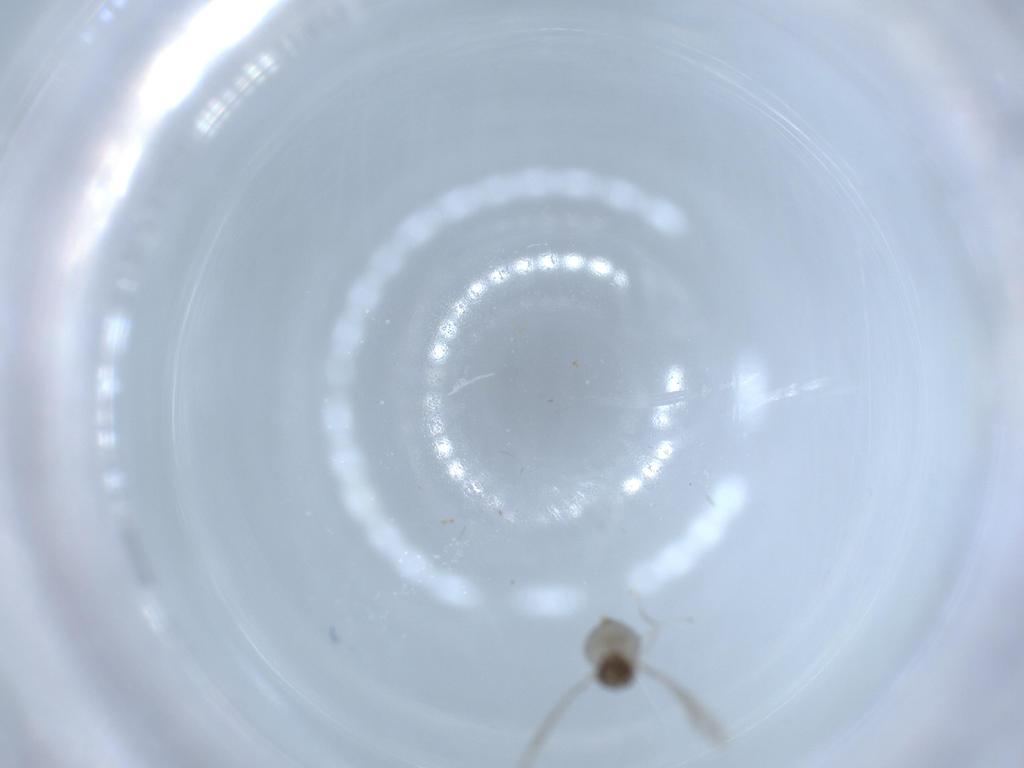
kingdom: Animalia
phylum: Arthropoda
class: Insecta
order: Diptera
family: Cecidomyiidae
